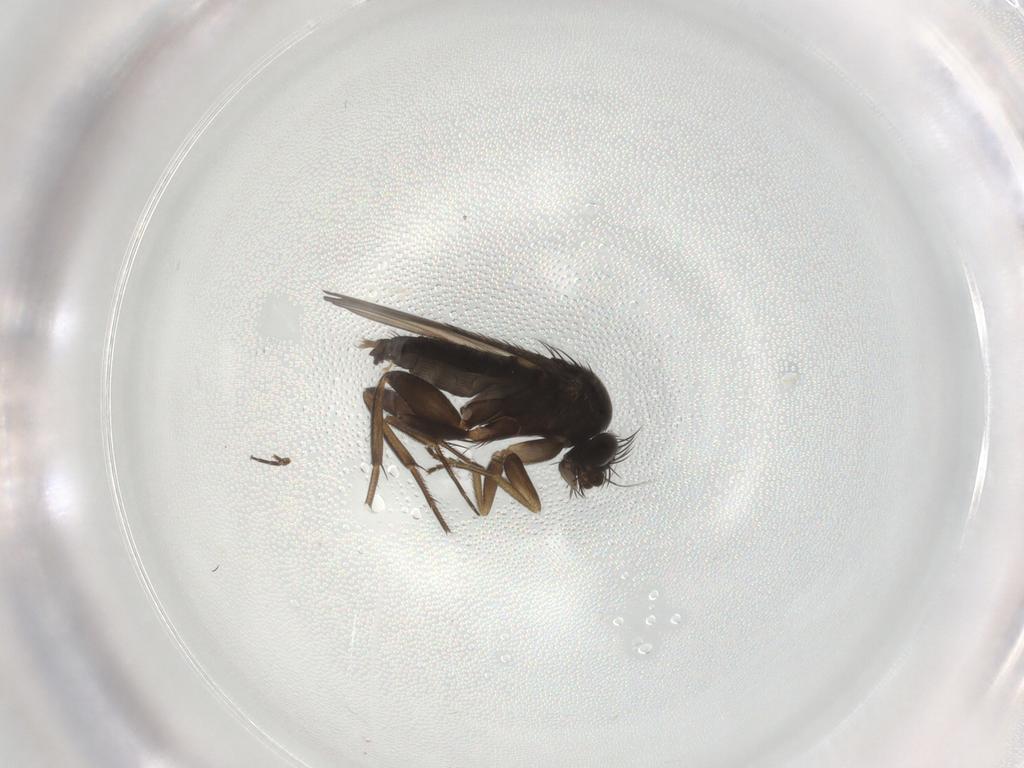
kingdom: Animalia
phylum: Arthropoda
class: Insecta
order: Diptera
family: Phoridae
